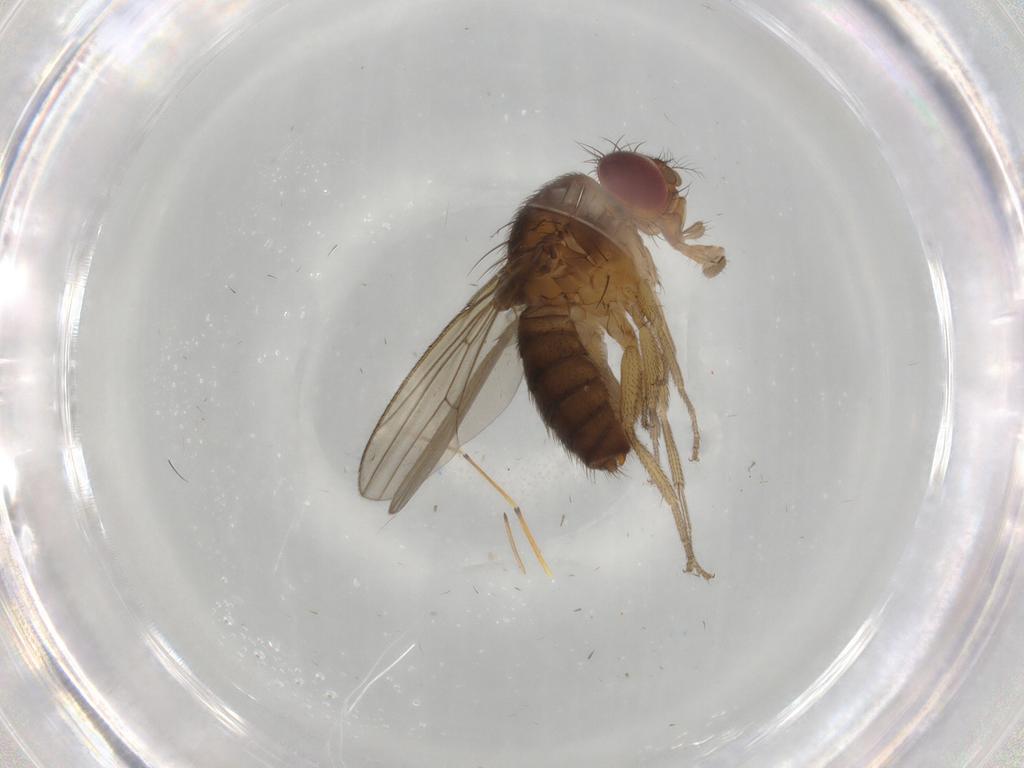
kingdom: Animalia
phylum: Arthropoda
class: Insecta
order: Diptera
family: Drosophilidae
